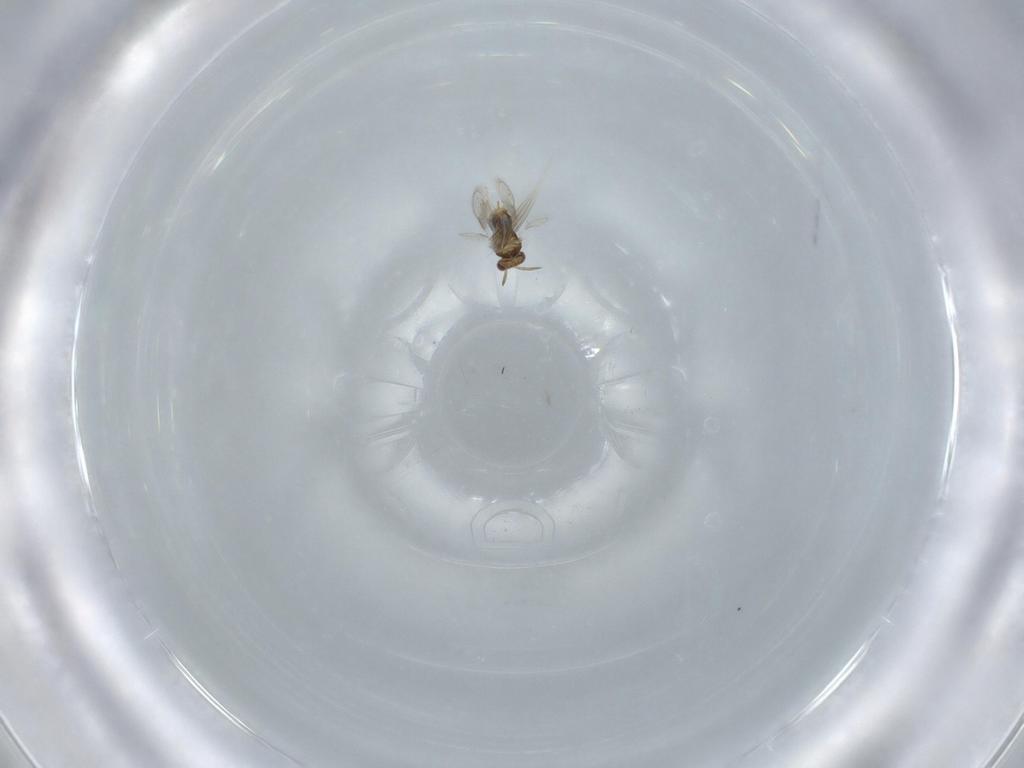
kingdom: Animalia
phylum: Arthropoda
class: Insecta
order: Hymenoptera
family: Aphelinidae
